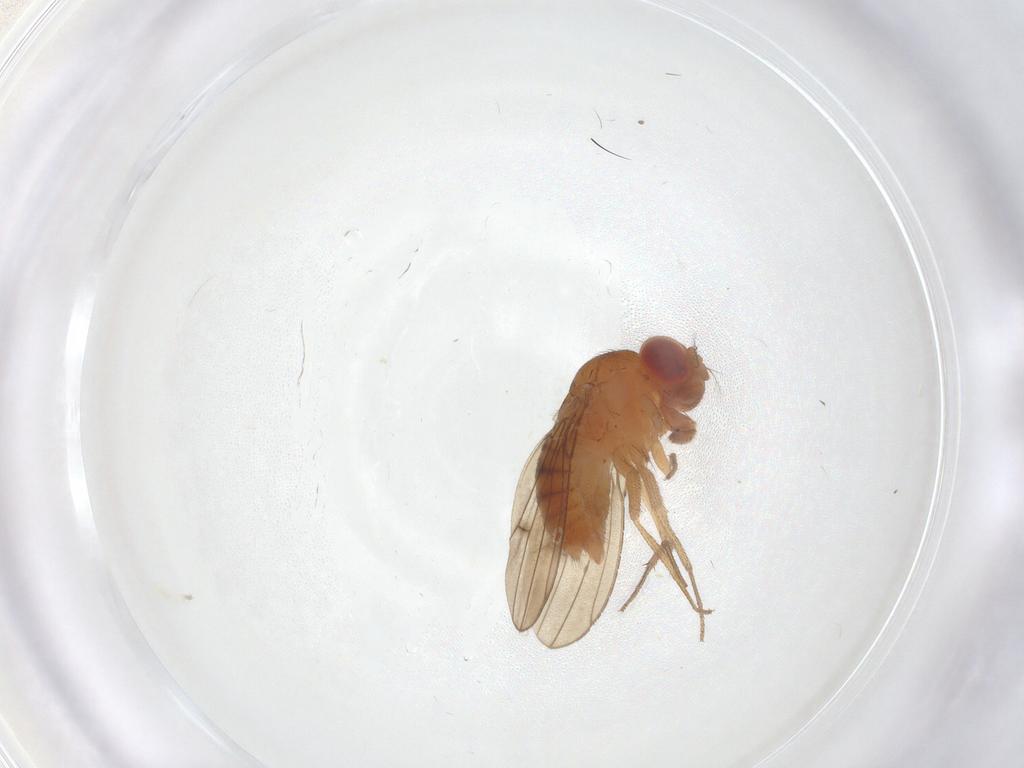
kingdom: Animalia
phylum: Arthropoda
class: Insecta
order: Diptera
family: Drosophilidae
